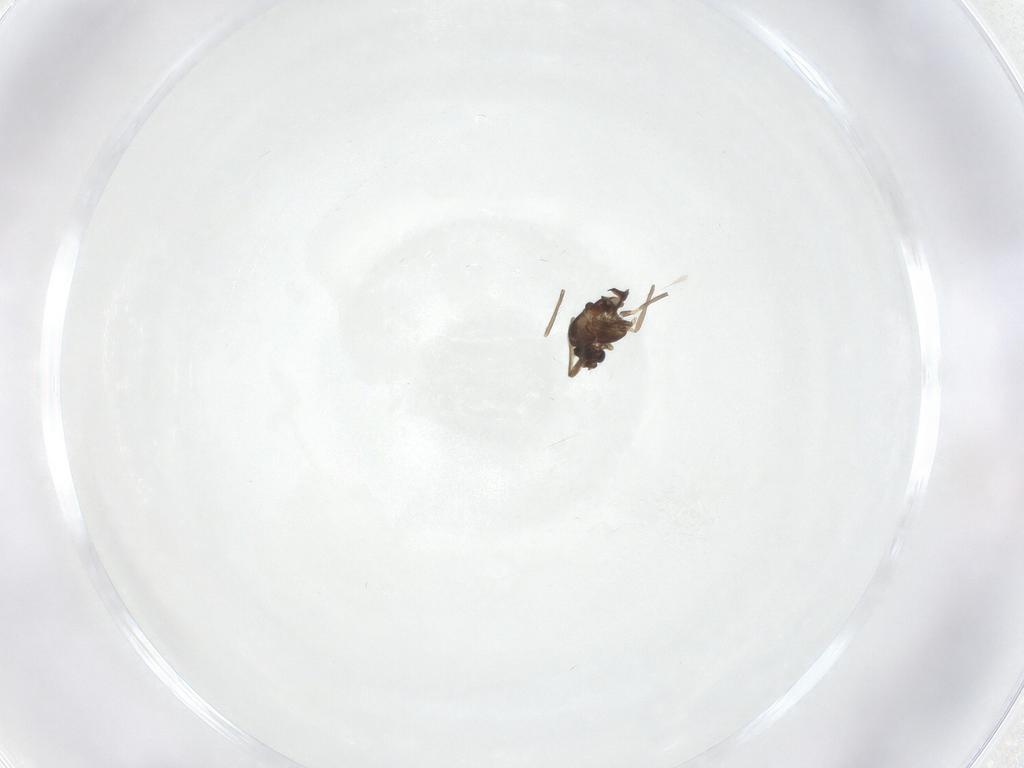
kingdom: Animalia
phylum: Arthropoda
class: Insecta
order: Diptera
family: Chironomidae
